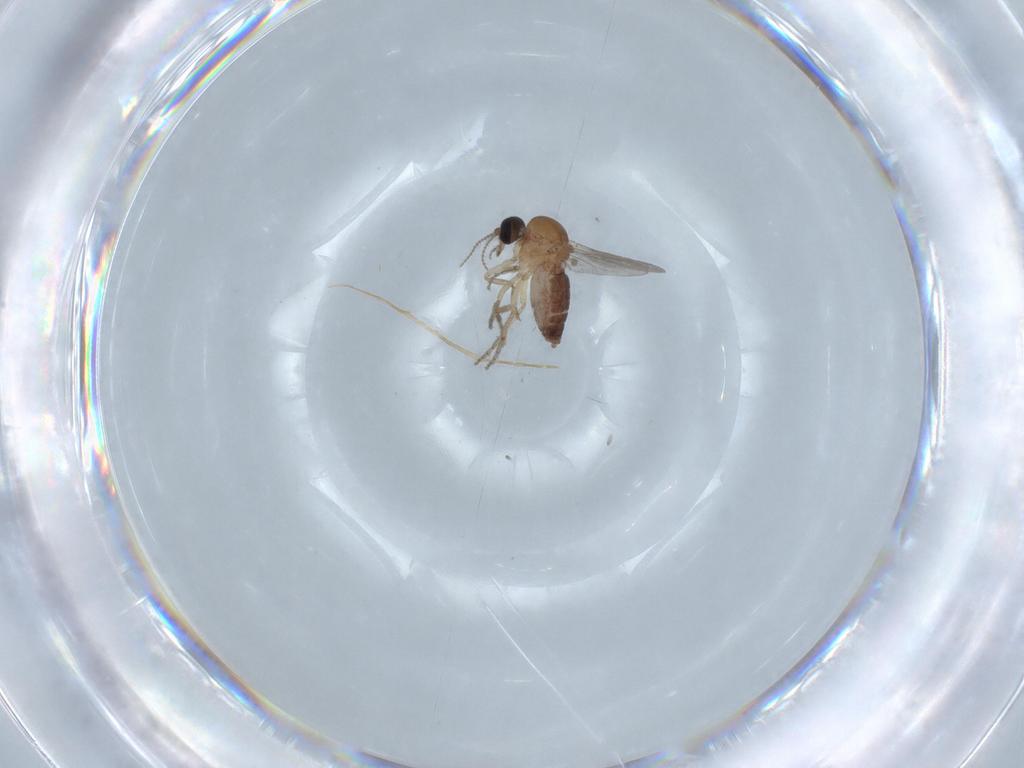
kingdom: Animalia
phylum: Arthropoda
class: Insecta
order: Diptera
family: Ceratopogonidae
